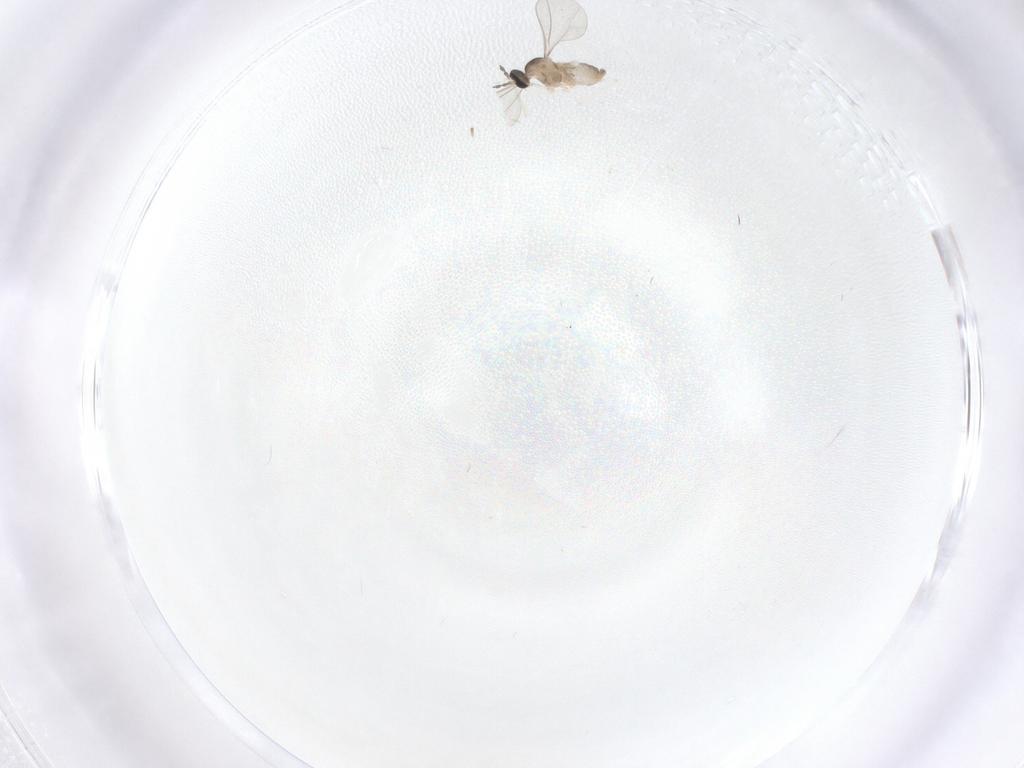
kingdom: Animalia
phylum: Arthropoda
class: Insecta
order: Diptera
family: Cecidomyiidae
